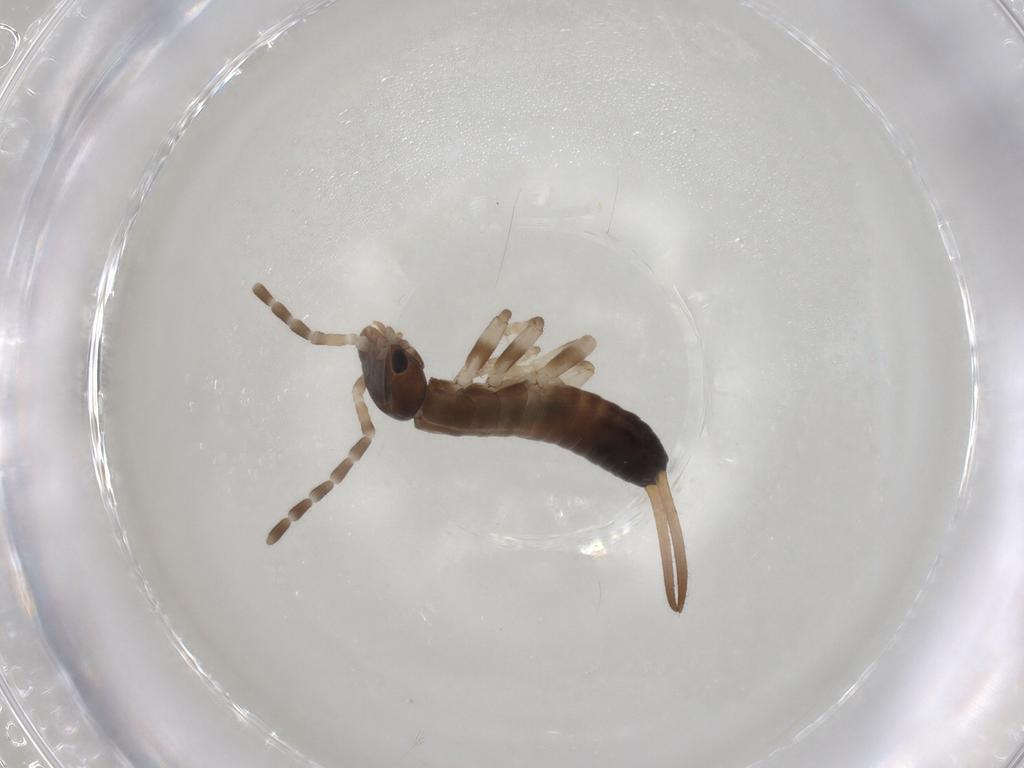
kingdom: Animalia
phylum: Arthropoda
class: Insecta
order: Diptera
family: Ceratopogonidae
